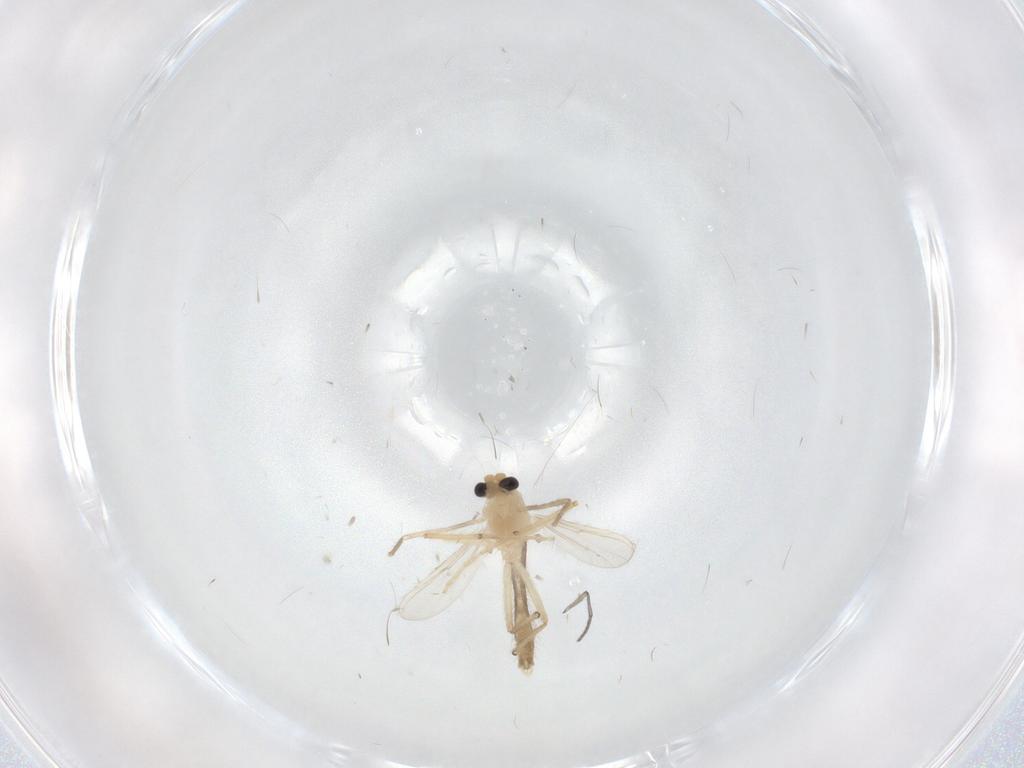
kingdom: Animalia
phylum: Arthropoda
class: Insecta
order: Diptera
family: Chironomidae
